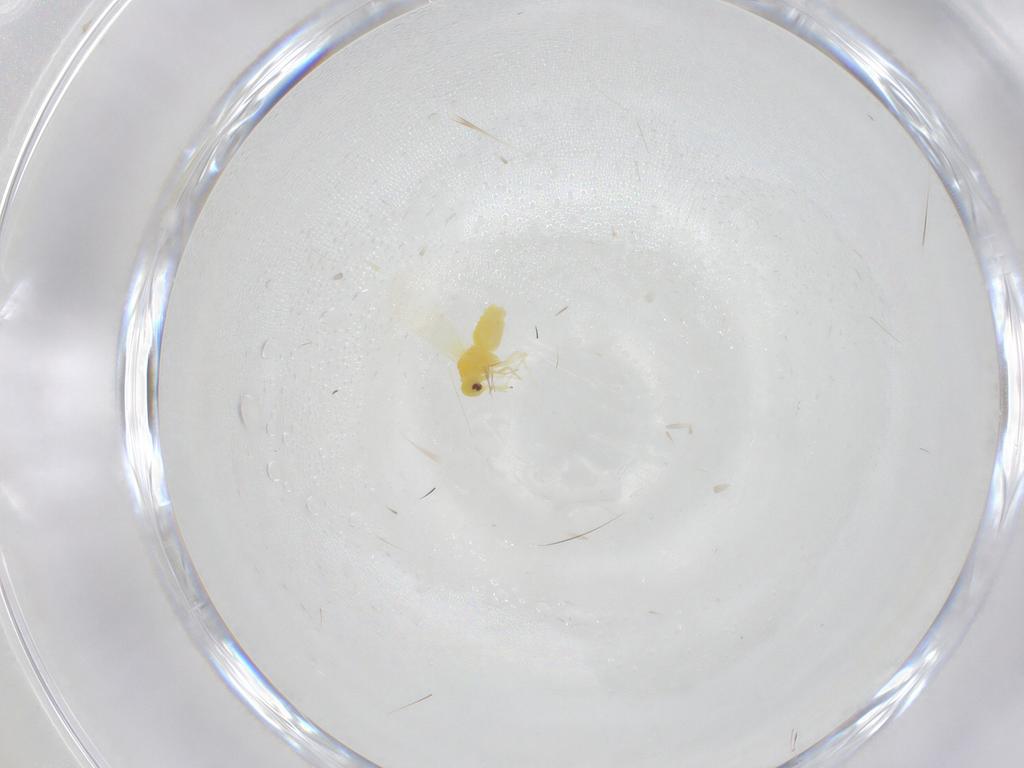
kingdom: Animalia
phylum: Arthropoda
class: Insecta
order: Hemiptera
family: Aleyrodidae
